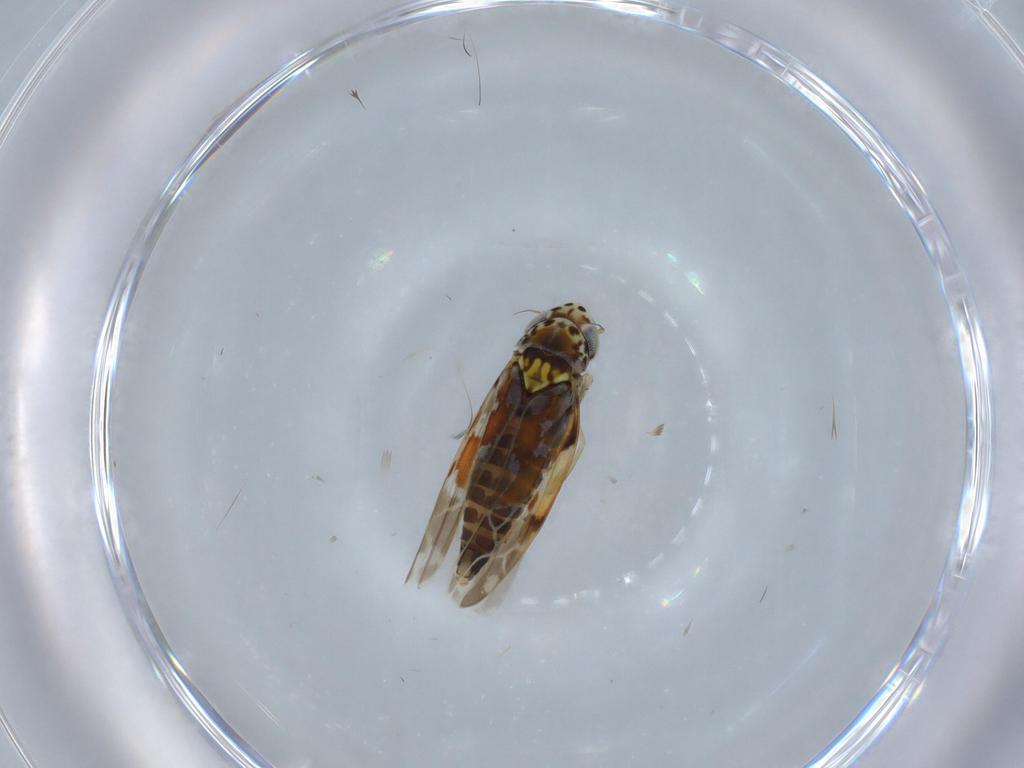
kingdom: Animalia
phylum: Arthropoda
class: Insecta
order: Hemiptera
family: Cicadellidae
